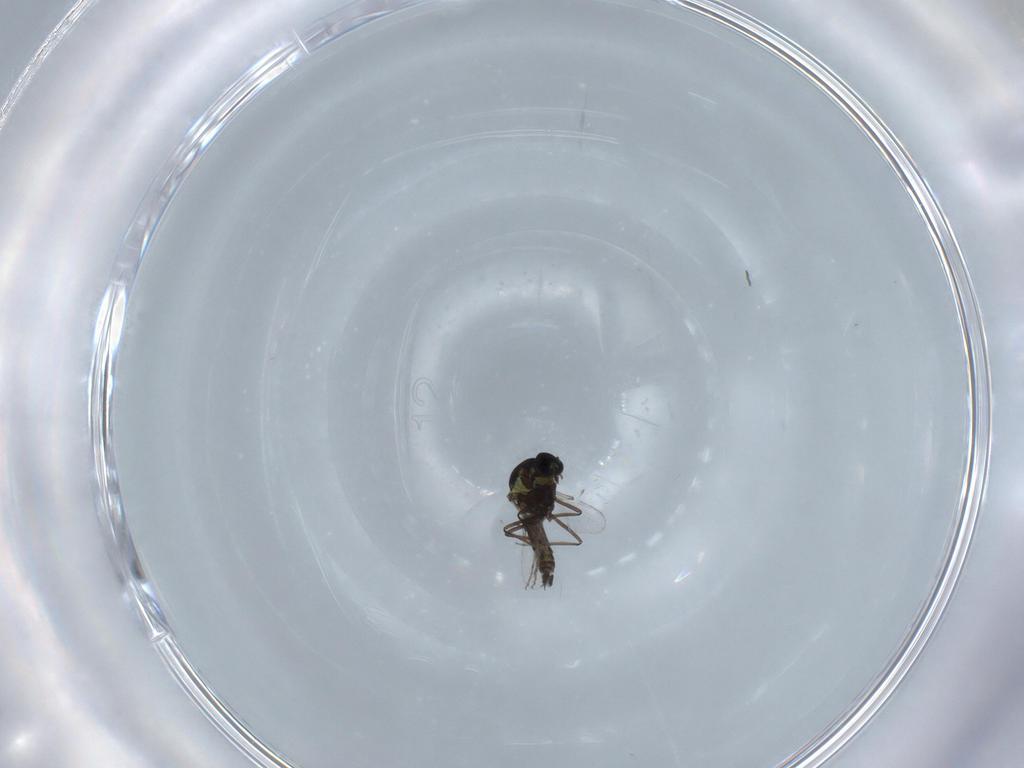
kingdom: Animalia
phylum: Arthropoda
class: Insecta
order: Diptera
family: Ceratopogonidae
